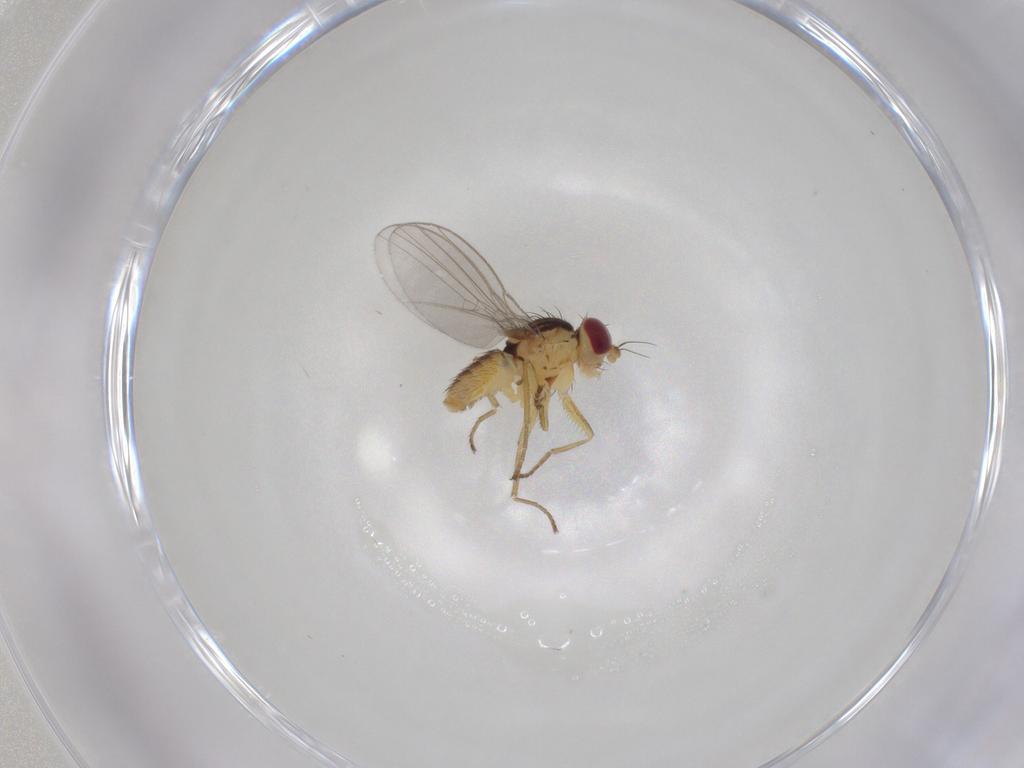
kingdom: Animalia
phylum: Arthropoda
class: Insecta
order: Diptera
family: Agromyzidae
